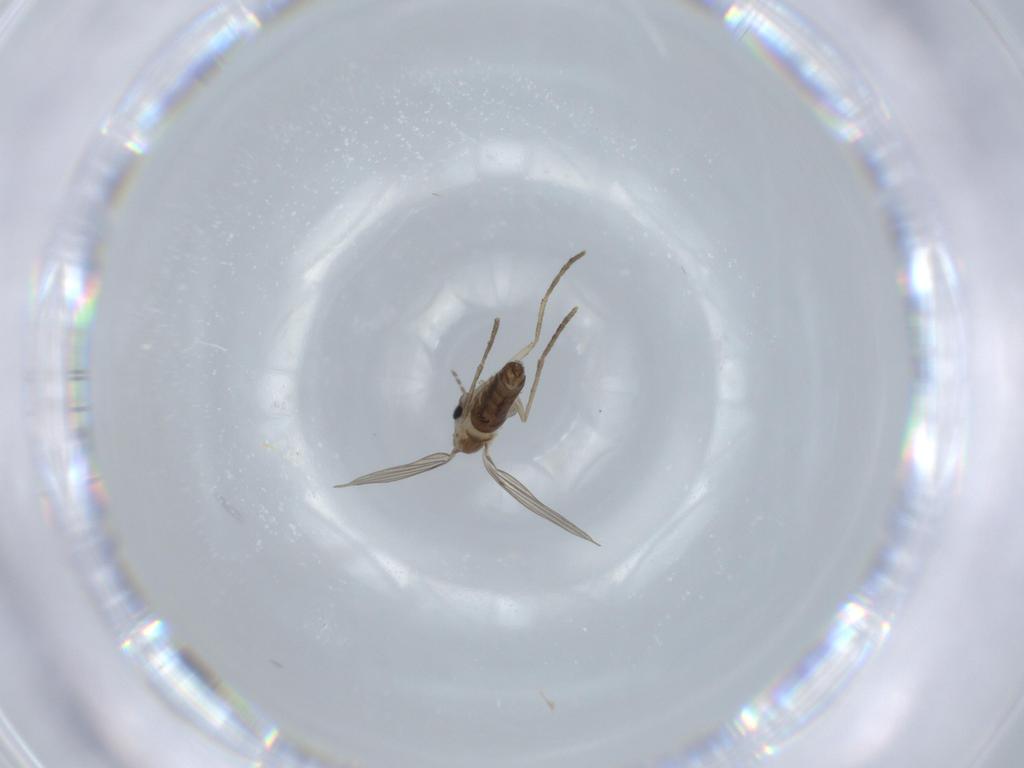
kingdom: Animalia
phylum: Arthropoda
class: Insecta
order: Diptera
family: Psychodidae
